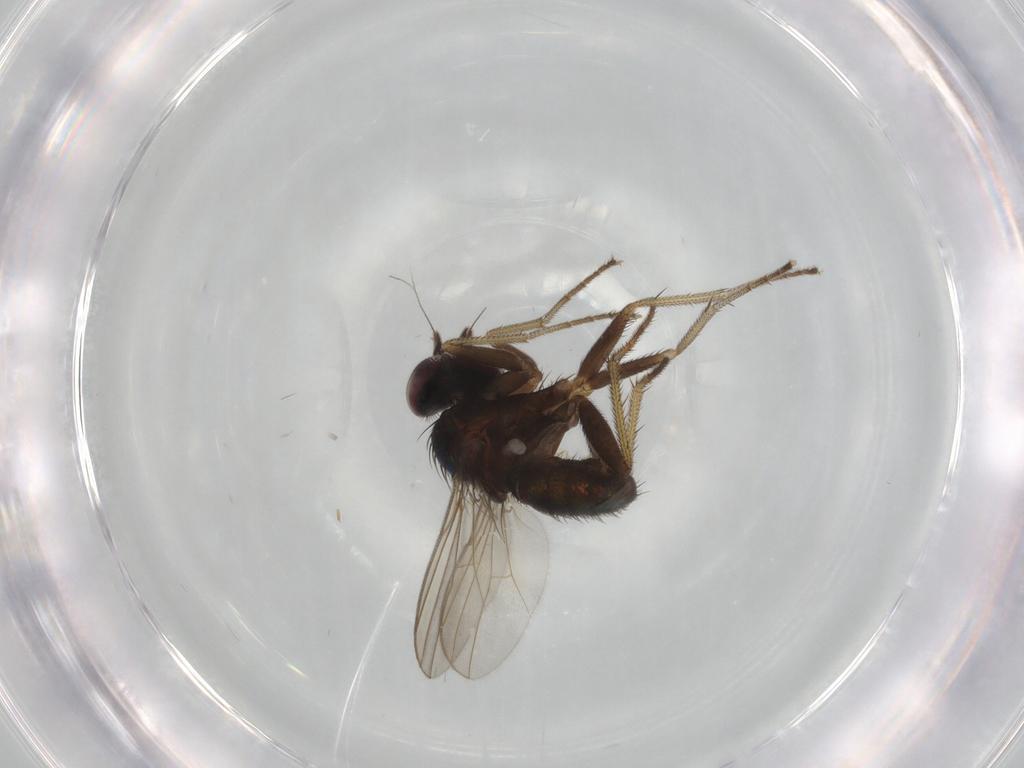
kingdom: Animalia
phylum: Arthropoda
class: Insecta
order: Diptera
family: Dolichopodidae
